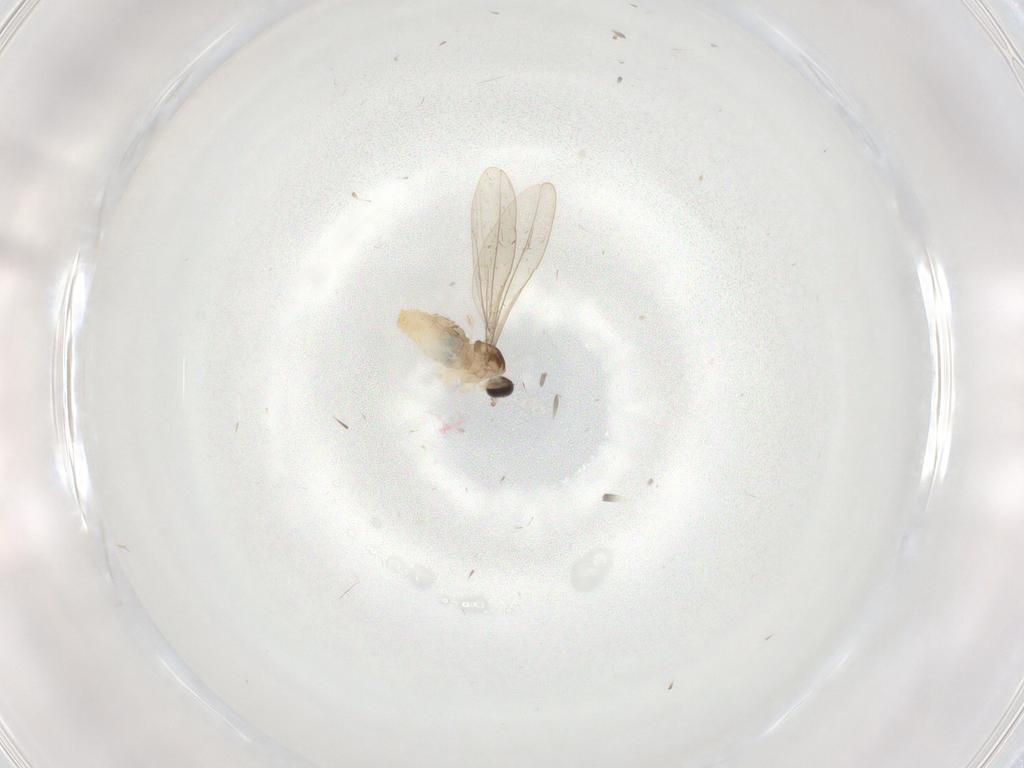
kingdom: Animalia
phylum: Arthropoda
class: Insecta
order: Diptera
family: Cecidomyiidae
